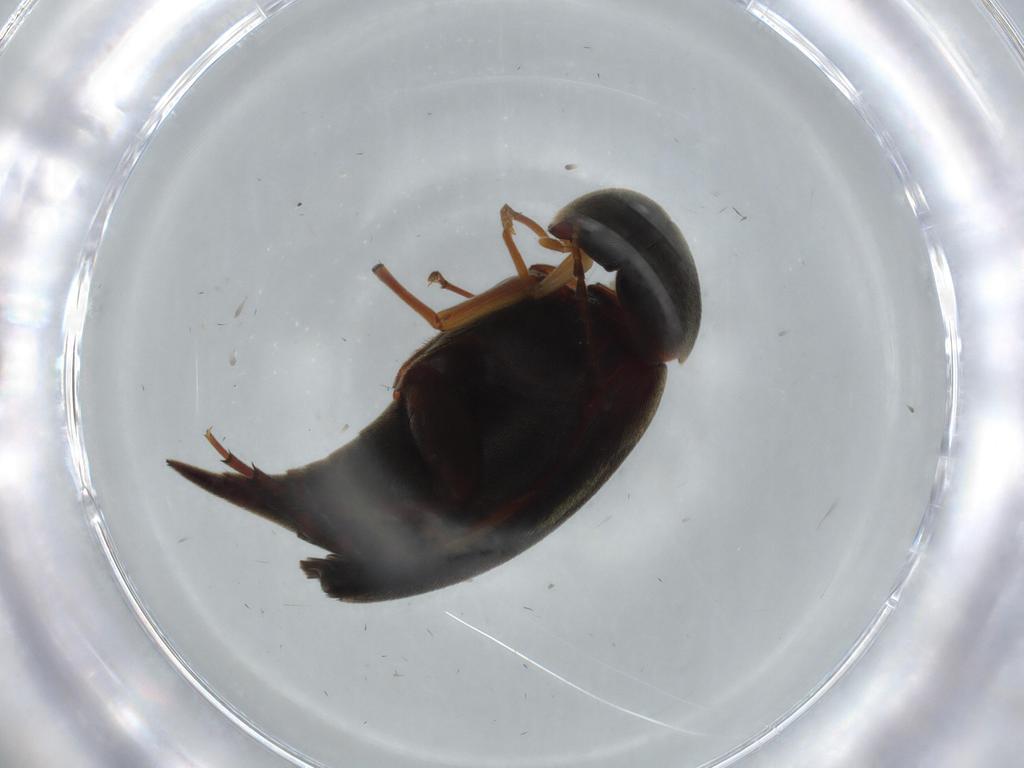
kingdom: Animalia
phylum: Arthropoda
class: Insecta
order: Coleoptera
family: Mordellidae
